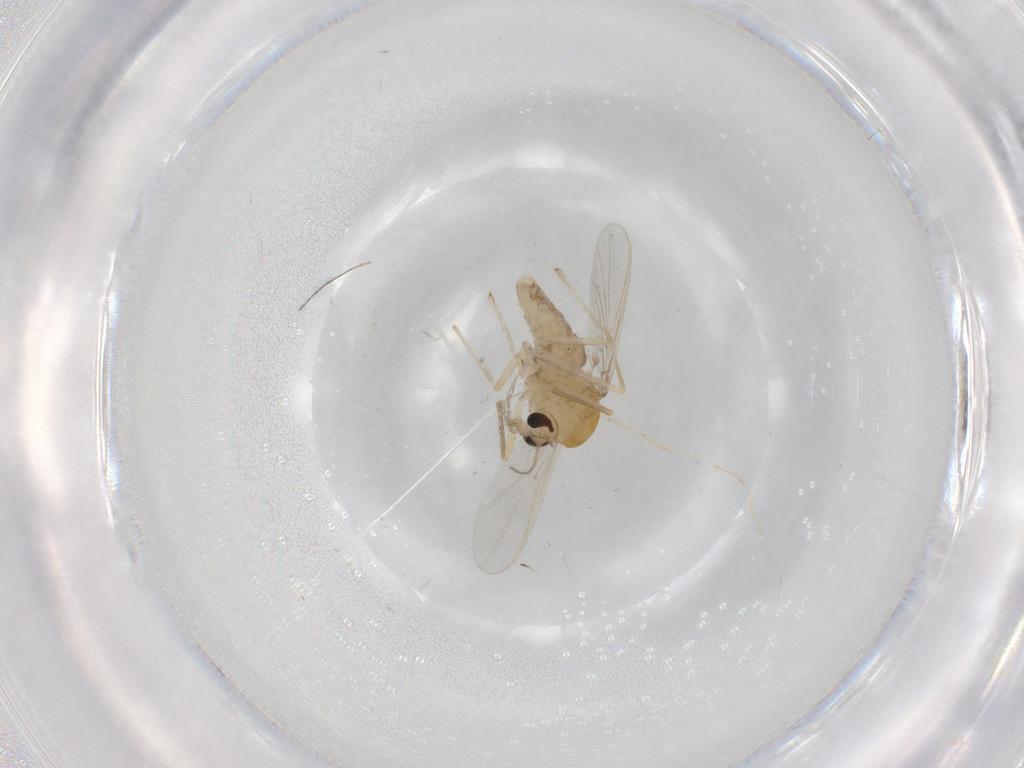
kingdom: Animalia
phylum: Arthropoda
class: Insecta
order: Diptera
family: Chironomidae
